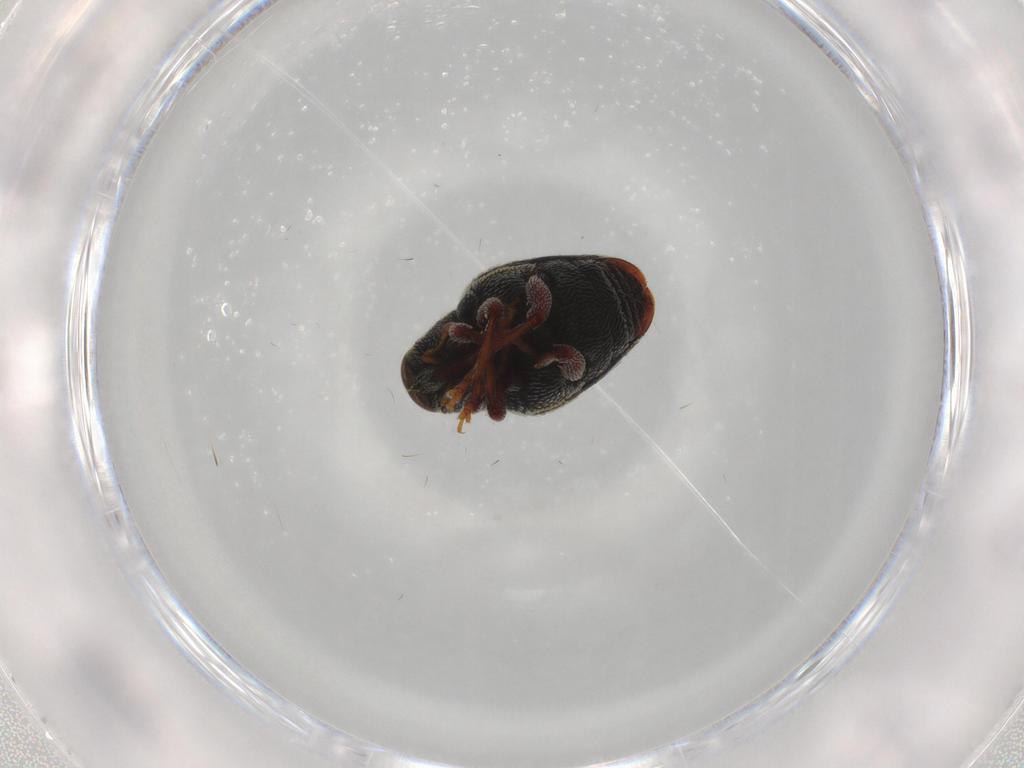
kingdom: Animalia
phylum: Arthropoda
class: Insecta
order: Coleoptera
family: Curculionidae
